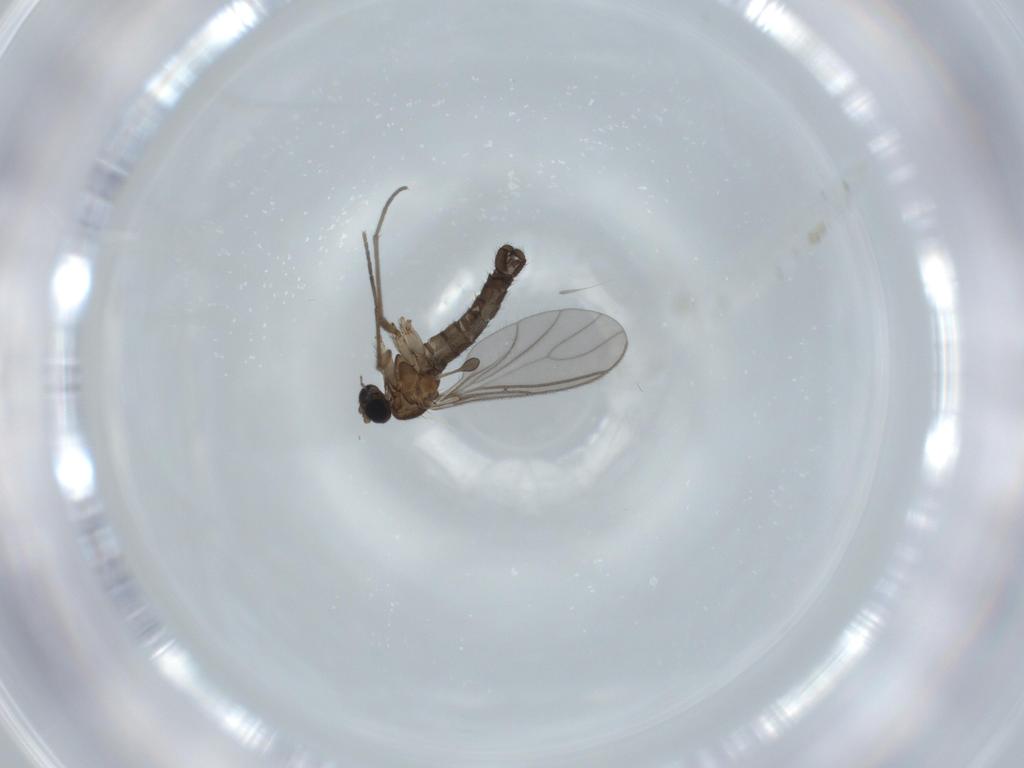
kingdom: Animalia
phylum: Arthropoda
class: Insecta
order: Diptera
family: Sciaridae
